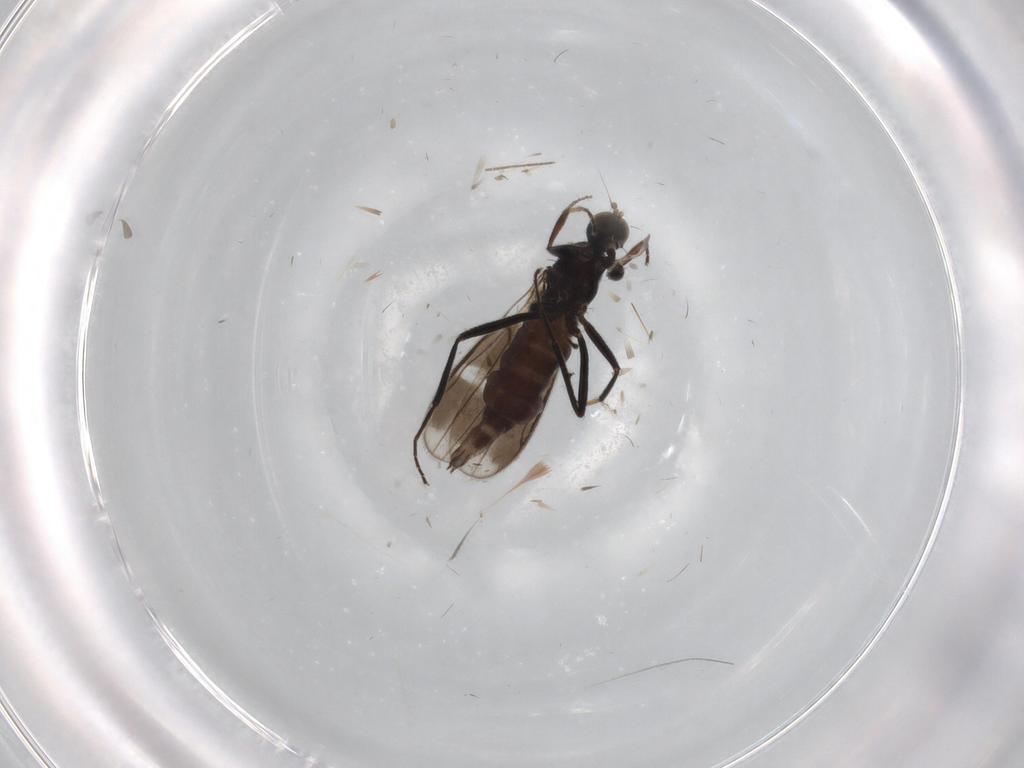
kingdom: Animalia
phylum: Arthropoda
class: Insecta
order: Diptera
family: Hybotidae
